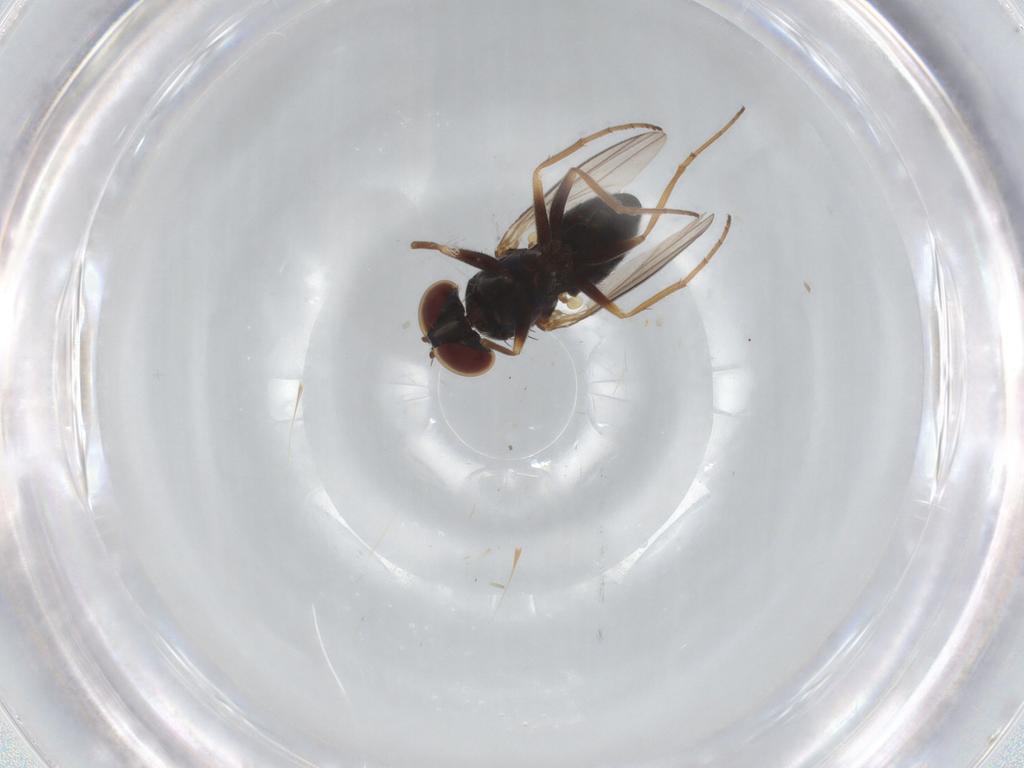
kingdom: Animalia
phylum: Arthropoda
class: Insecta
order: Diptera
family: Dolichopodidae
